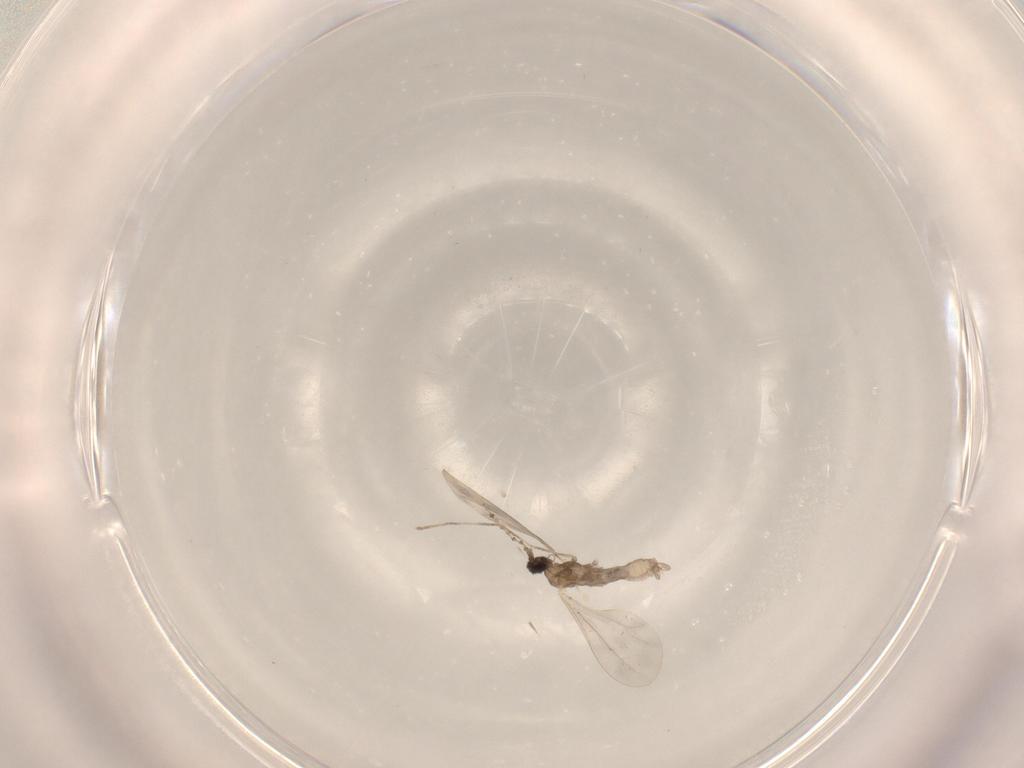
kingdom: Animalia
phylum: Arthropoda
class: Insecta
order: Diptera
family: Cecidomyiidae
